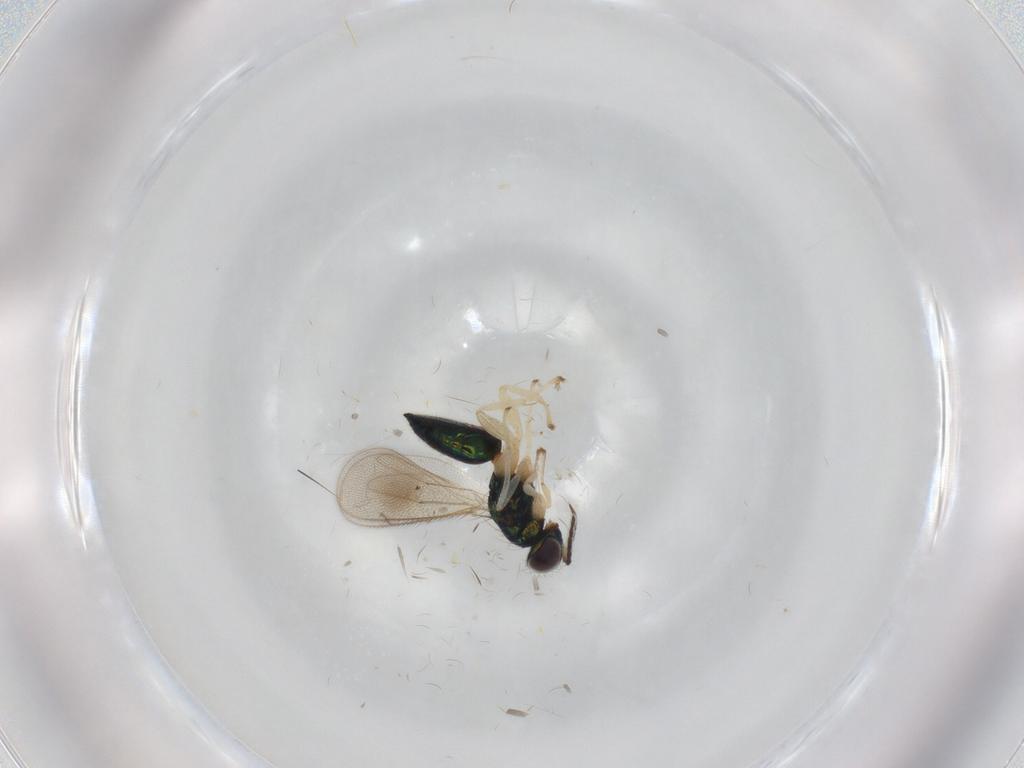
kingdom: Animalia
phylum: Arthropoda
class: Insecta
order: Hymenoptera
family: Eulophidae
